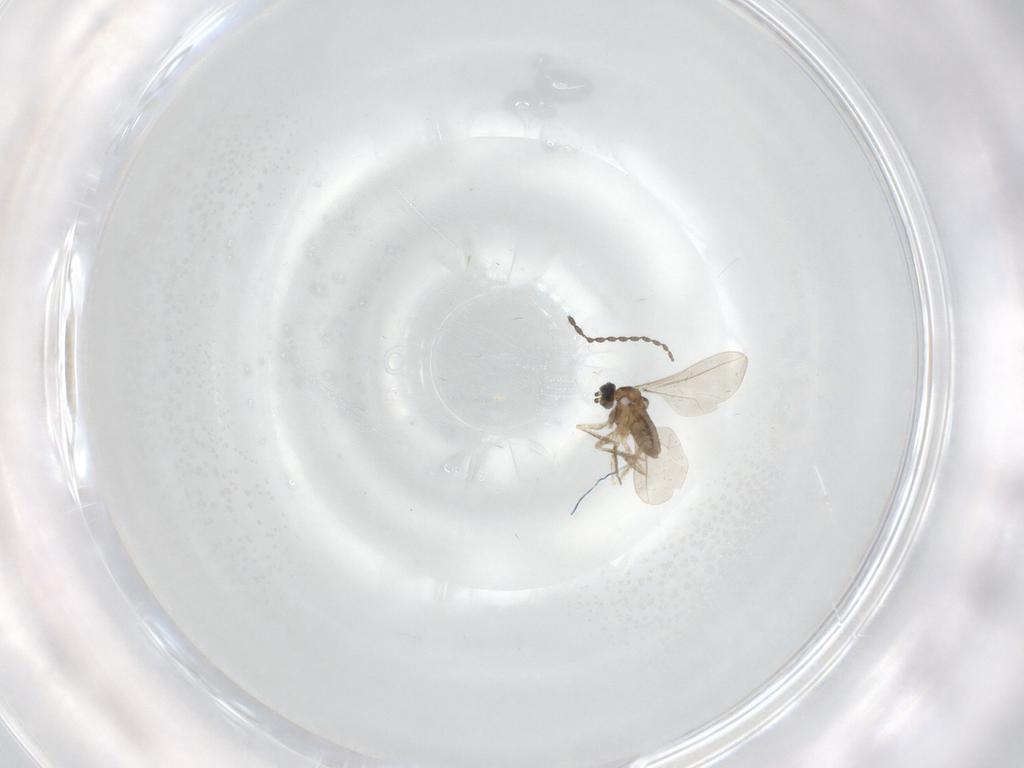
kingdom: Animalia
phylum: Arthropoda
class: Insecta
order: Diptera
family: Cecidomyiidae
